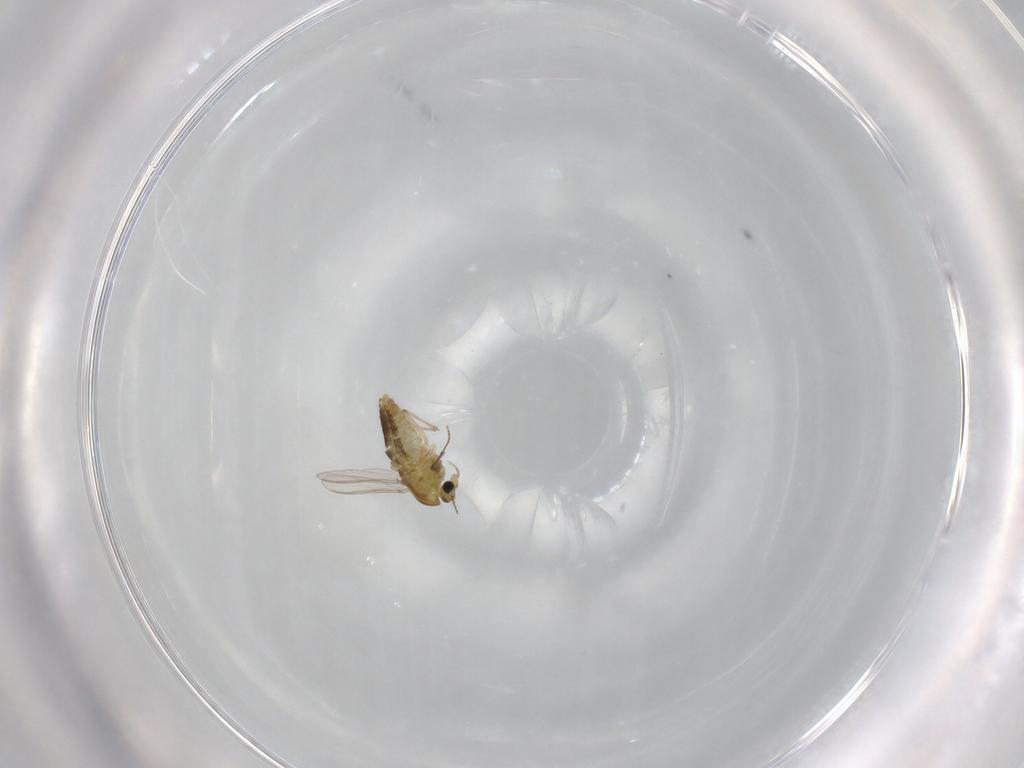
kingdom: Animalia
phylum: Arthropoda
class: Insecta
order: Diptera
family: Chironomidae
